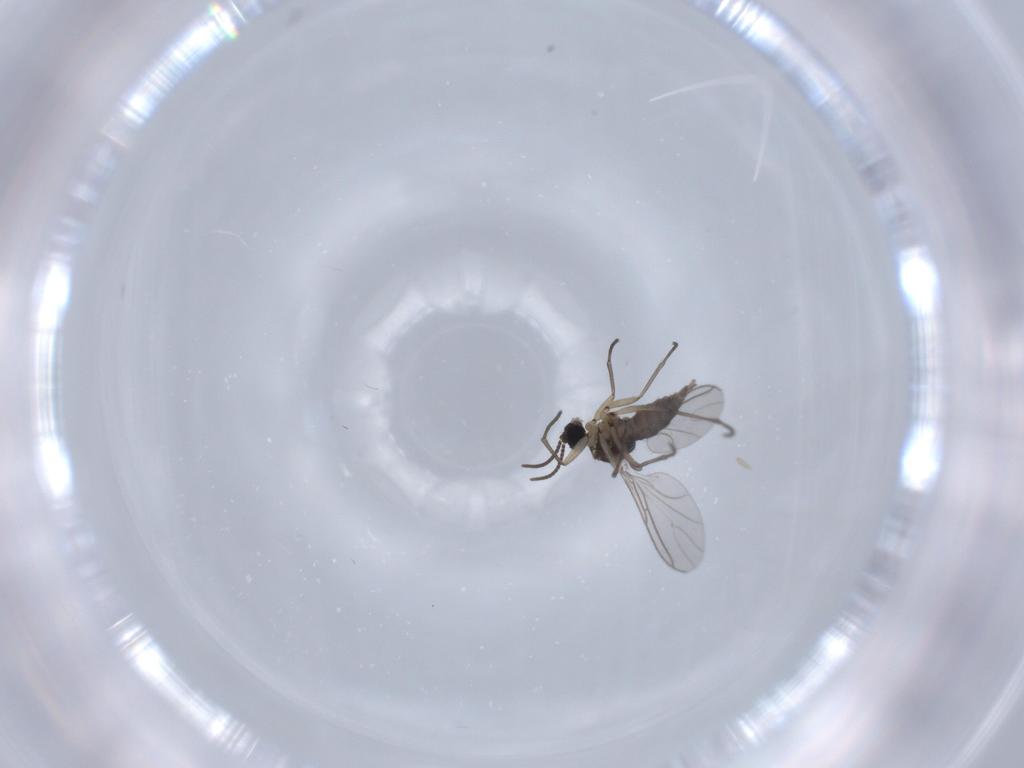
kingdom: Animalia
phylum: Arthropoda
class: Insecta
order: Diptera
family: Sciaridae
